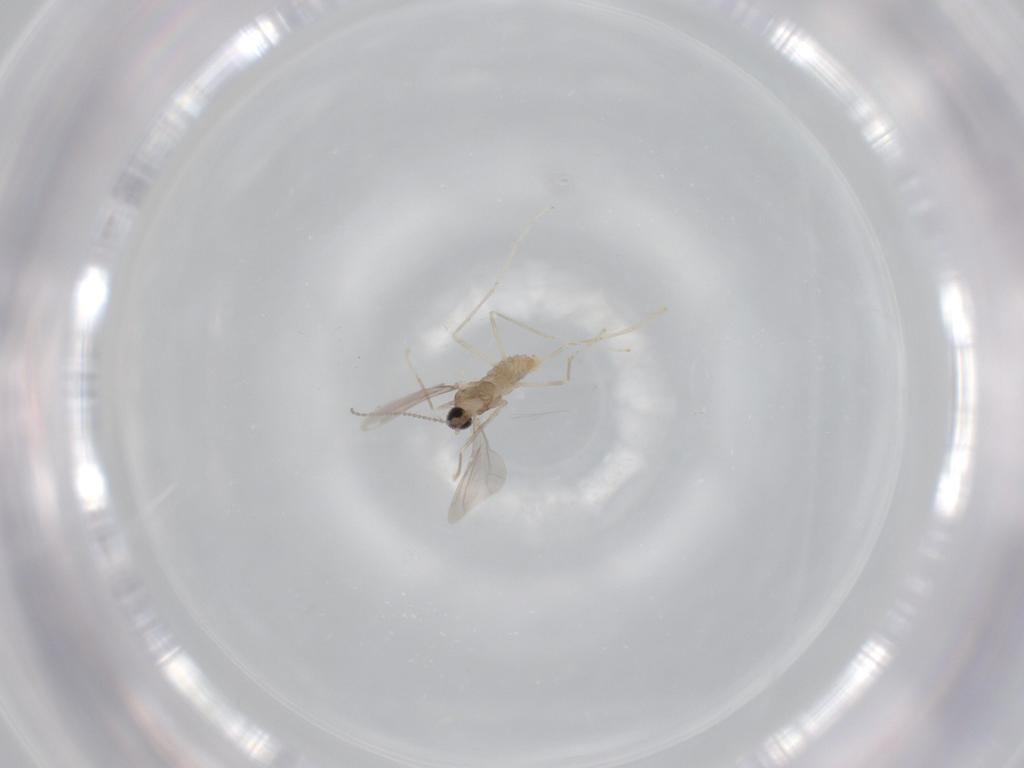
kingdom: Animalia
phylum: Arthropoda
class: Insecta
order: Diptera
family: Cecidomyiidae
